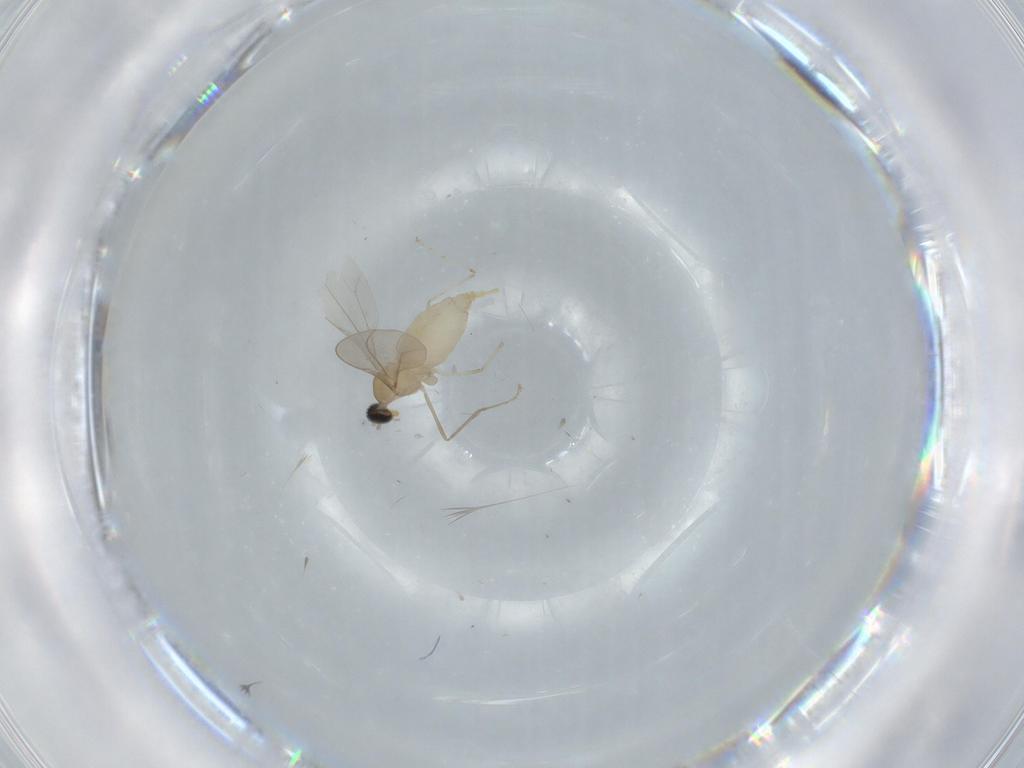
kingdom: Animalia
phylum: Arthropoda
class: Insecta
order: Diptera
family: Cecidomyiidae
